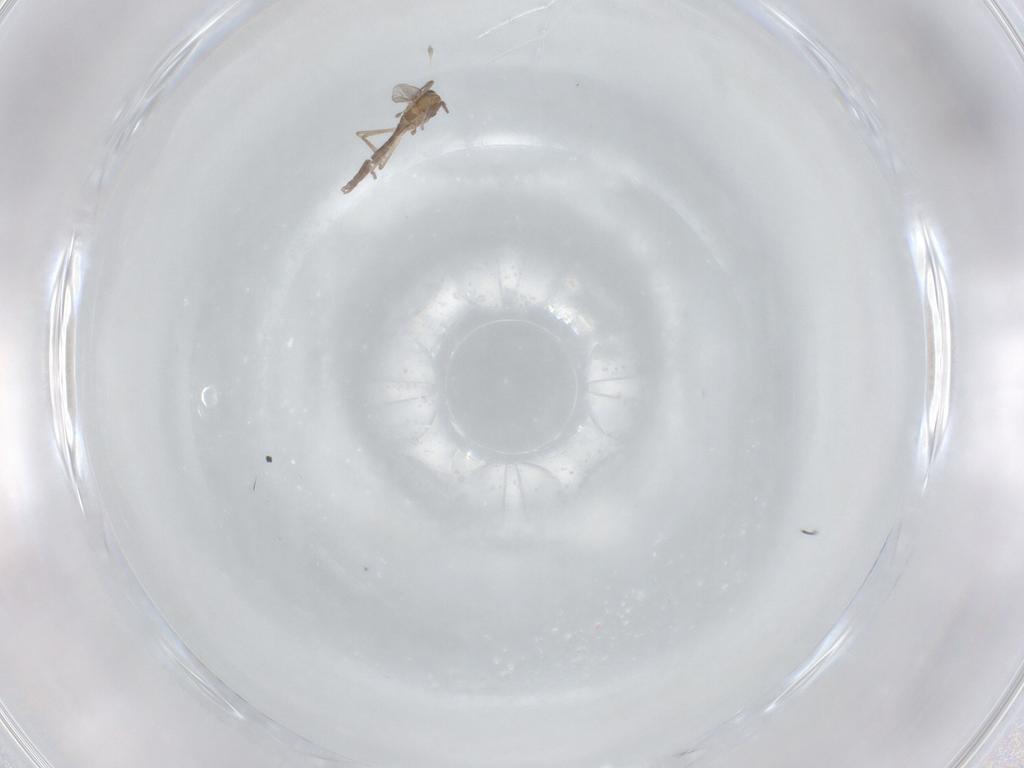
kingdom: Animalia
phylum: Arthropoda
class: Insecta
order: Diptera
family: Chironomidae
